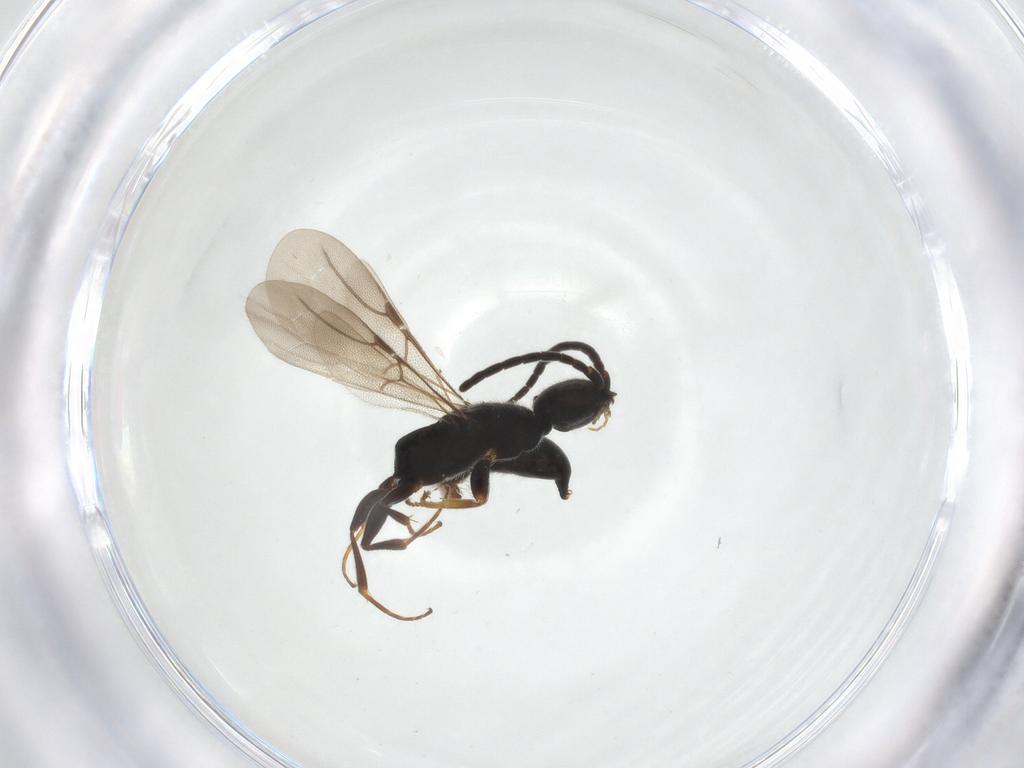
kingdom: Animalia
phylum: Arthropoda
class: Insecta
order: Hymenoptera
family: Bethylidae
